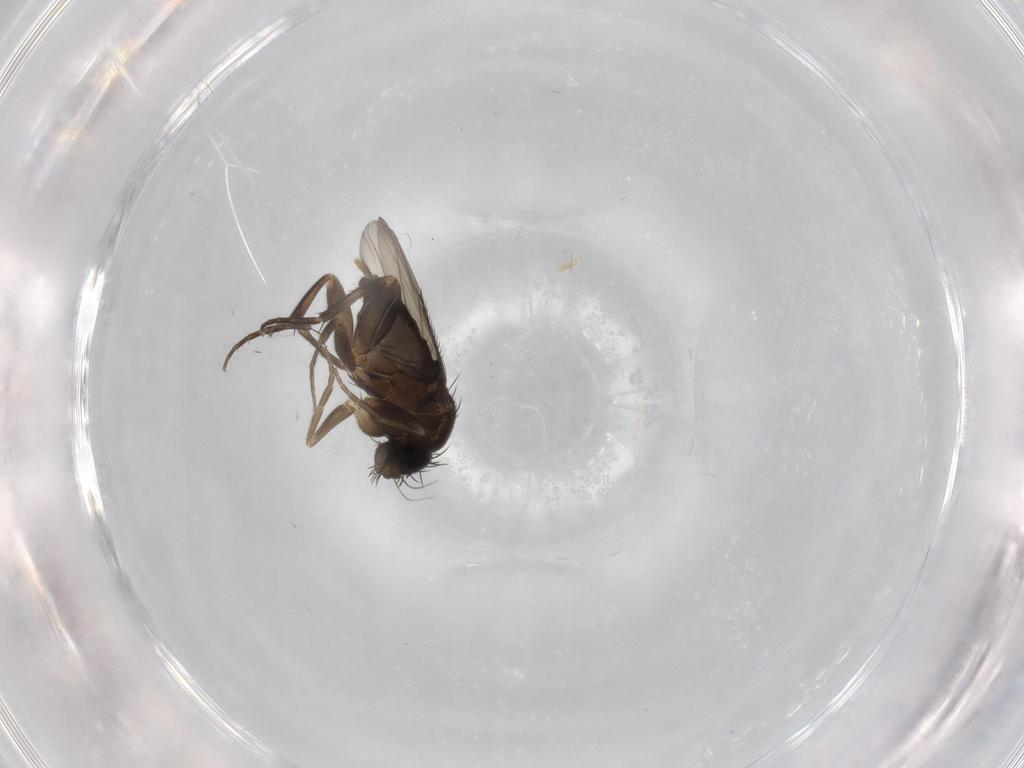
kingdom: Animalia
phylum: Arthropoda
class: Insecta
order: Diptera
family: Phoridae
